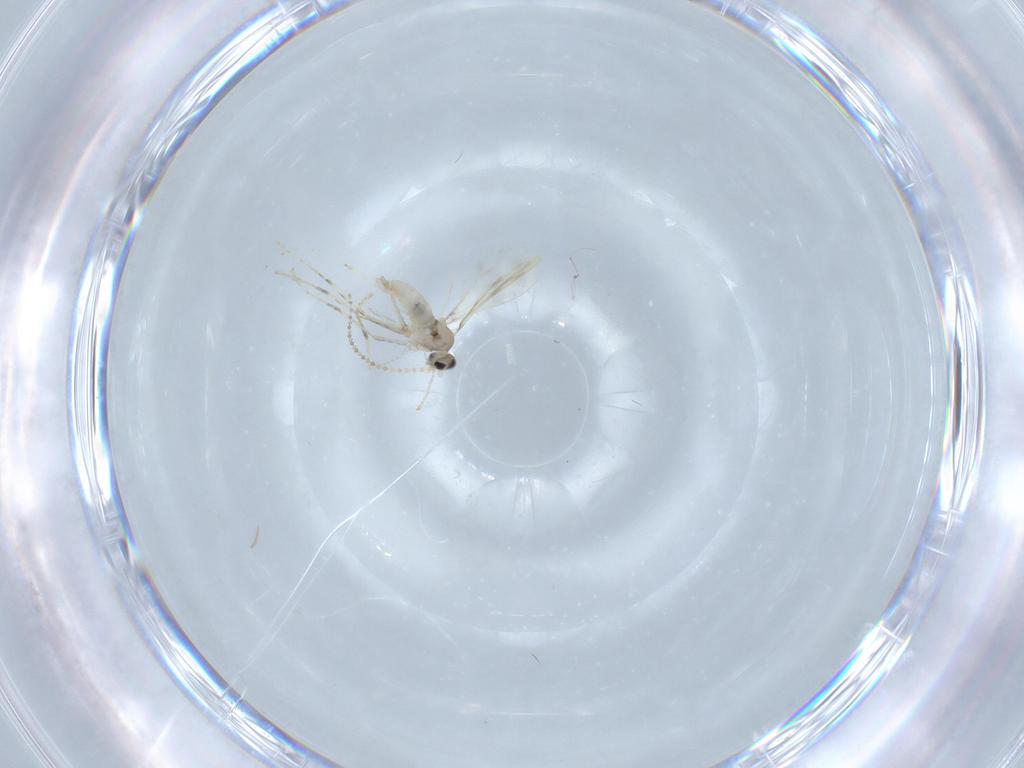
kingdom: Animalia
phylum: Arthropoda
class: Insecta
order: Diptera
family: Cecidomyiidae
